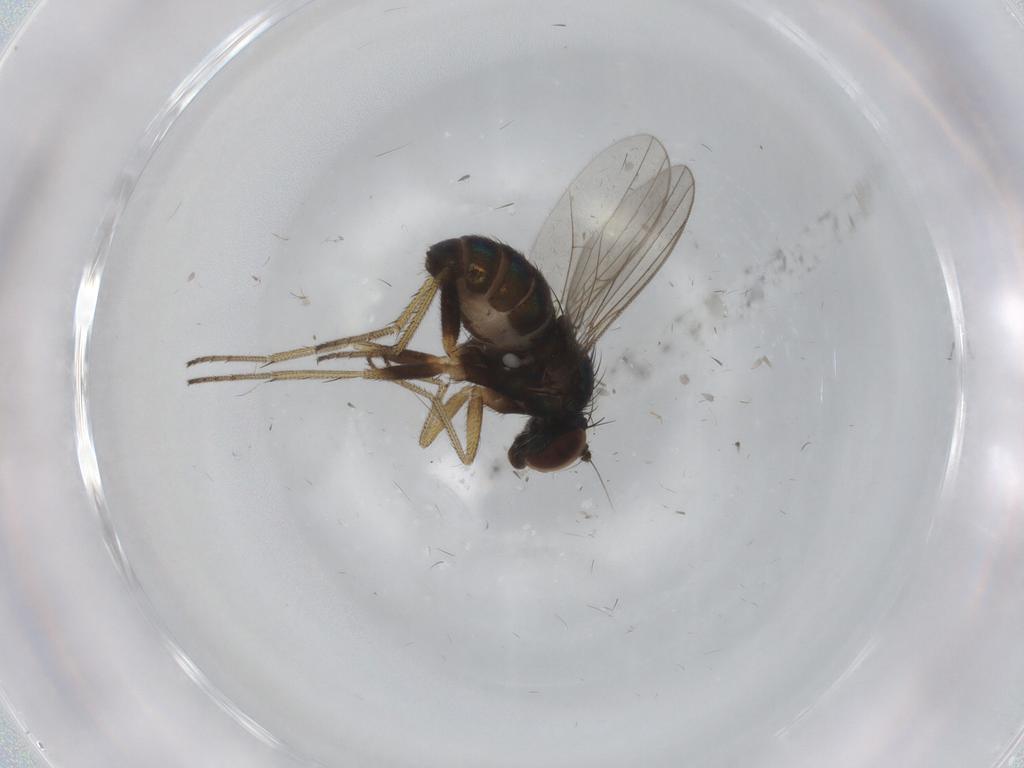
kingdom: Animalia
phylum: Arthropoda
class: Insecta
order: Diptera
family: Dolichopodidae
